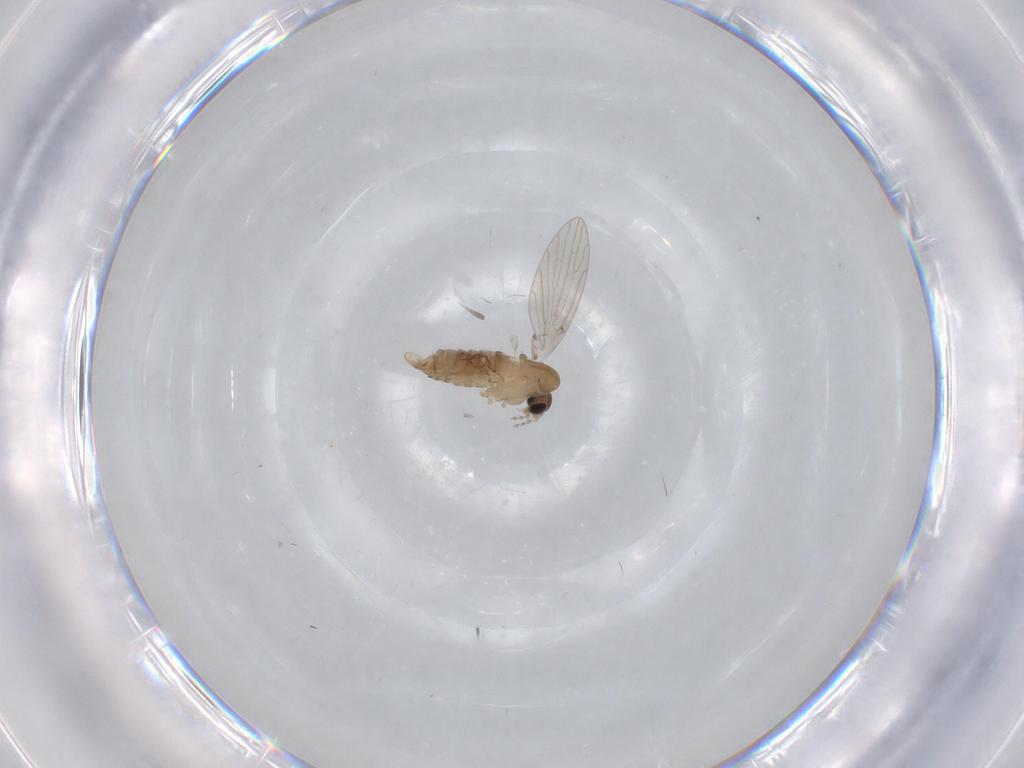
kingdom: Animalia
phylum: Arthropoda
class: Insecta
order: Diptera
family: Psychodidae
